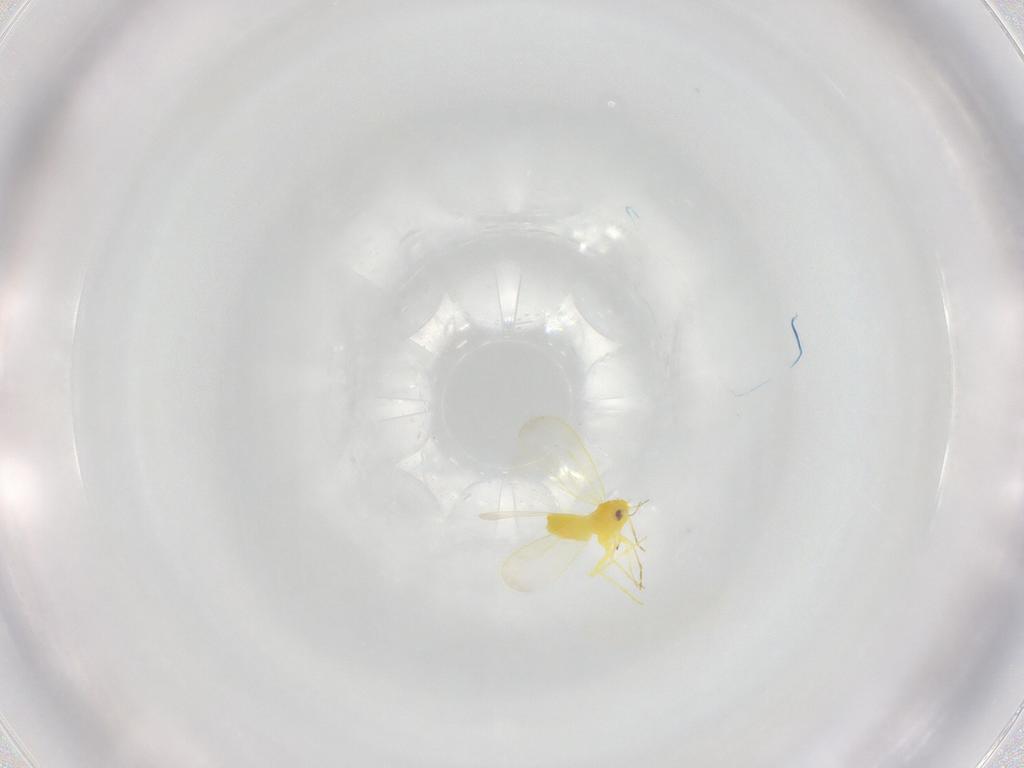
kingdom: Animalia
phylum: Arthropoda
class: Insecta
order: Hemiptera
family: Aleyrodidae
